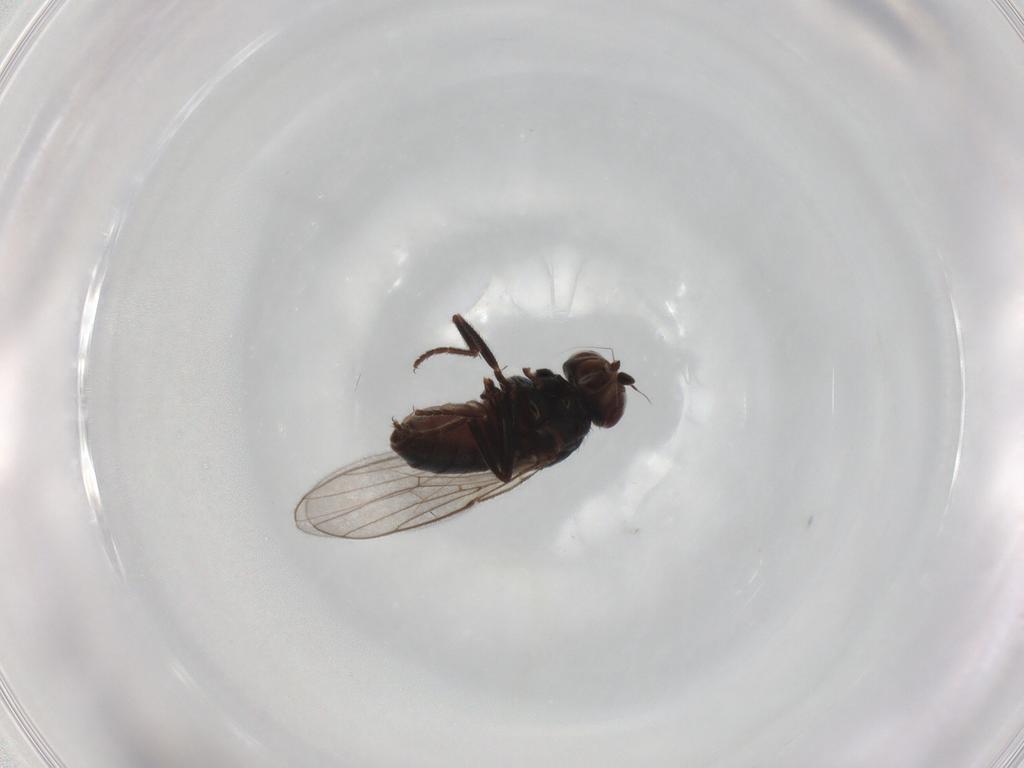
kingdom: Animalia
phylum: Arthropoda
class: Insecta
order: Diptera
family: Chloropidae
